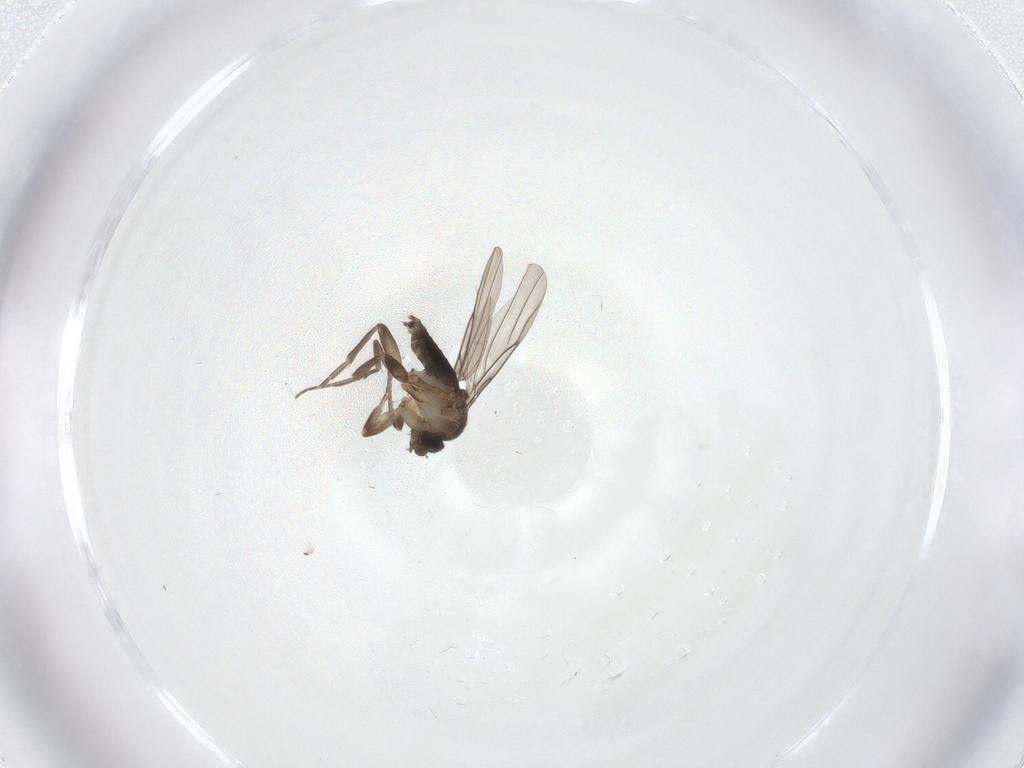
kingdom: Animalia
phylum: Arthropoda
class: Insecta
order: Diptera
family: Phoridae
